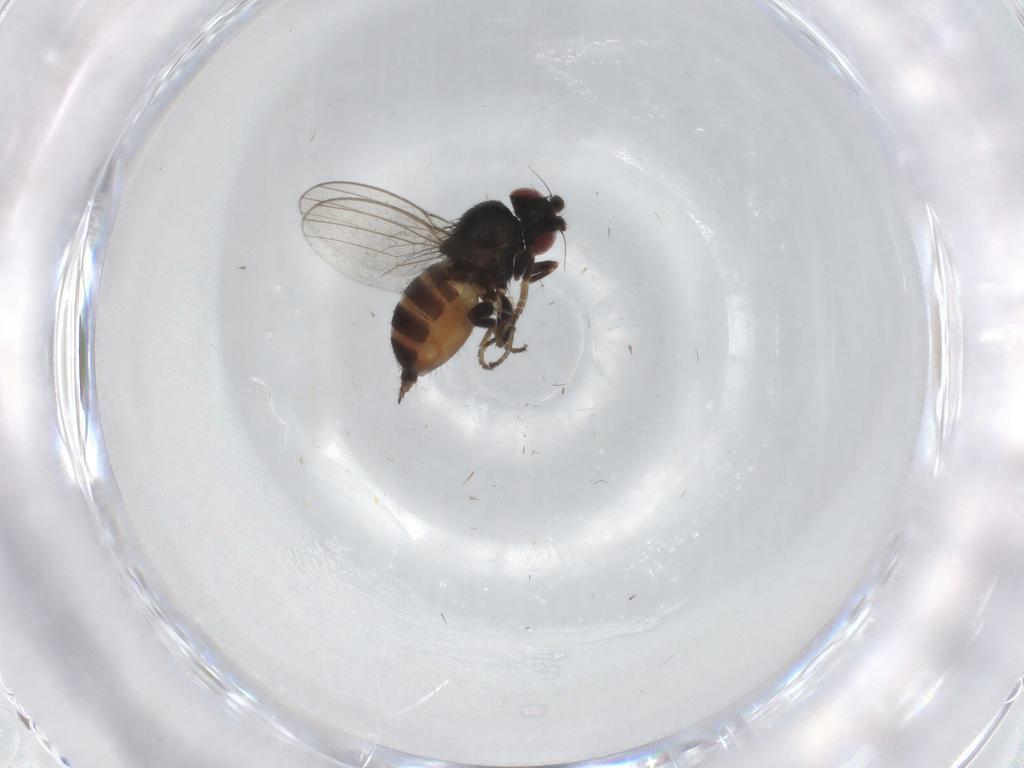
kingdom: Animalia
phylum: Arthropoda
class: Insecta
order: Diptera
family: Milichiidae
